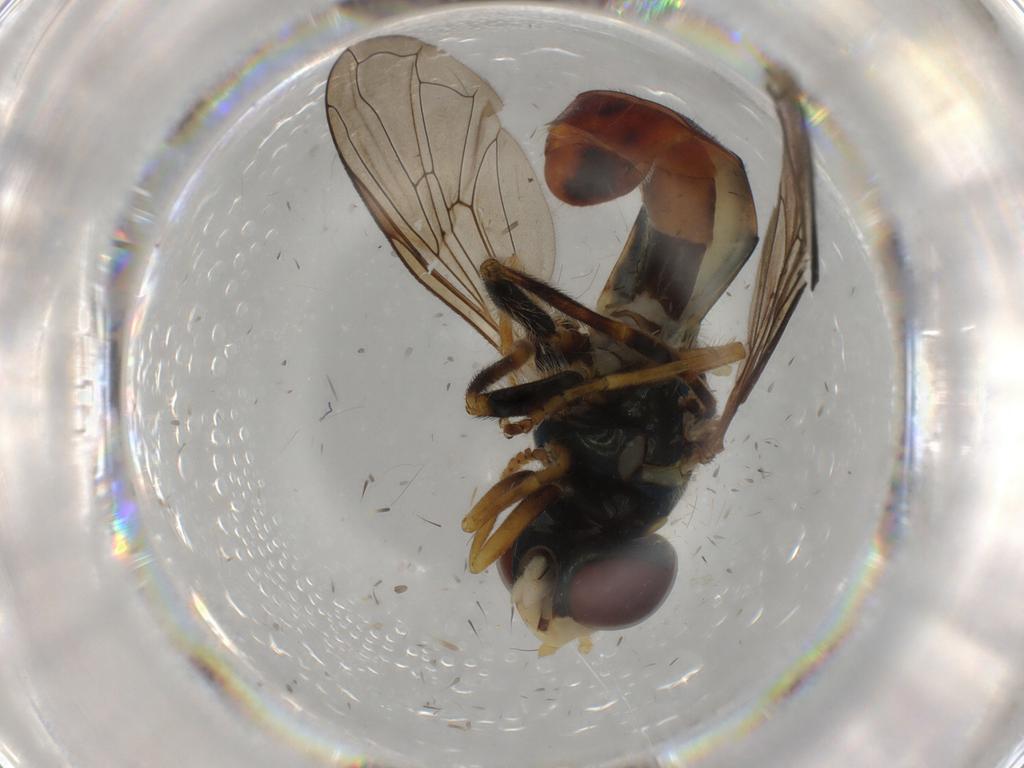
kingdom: Animalia
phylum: Arthropoda
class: Insecta
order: Diptera
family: Syrphidae
